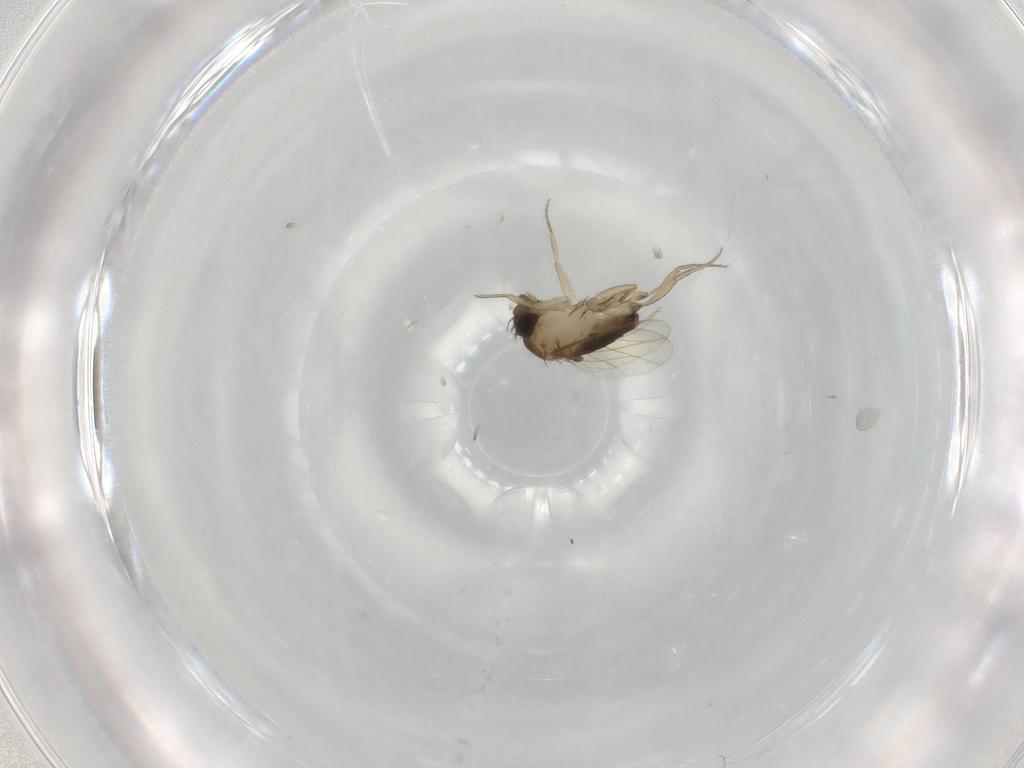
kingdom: Animalia
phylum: Arthropoda
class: Insecta
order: Diptera
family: Phoridae
